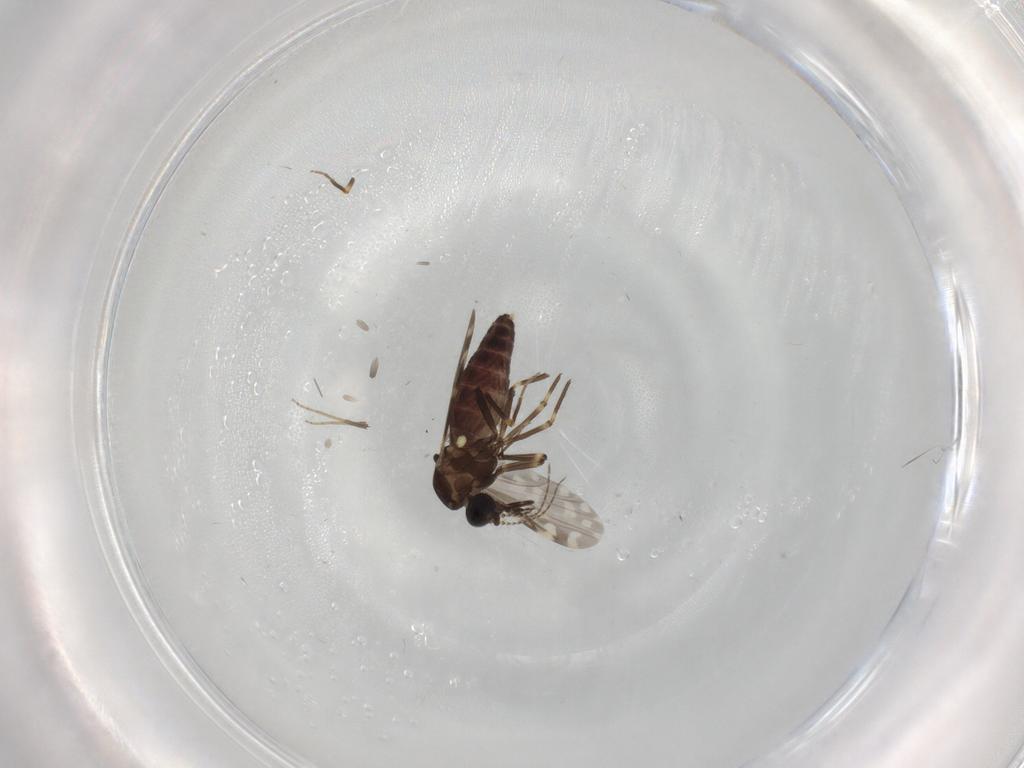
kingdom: Animalia
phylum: Arthropoda
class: Insecta
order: Diptera
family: Ceratopogonidae
